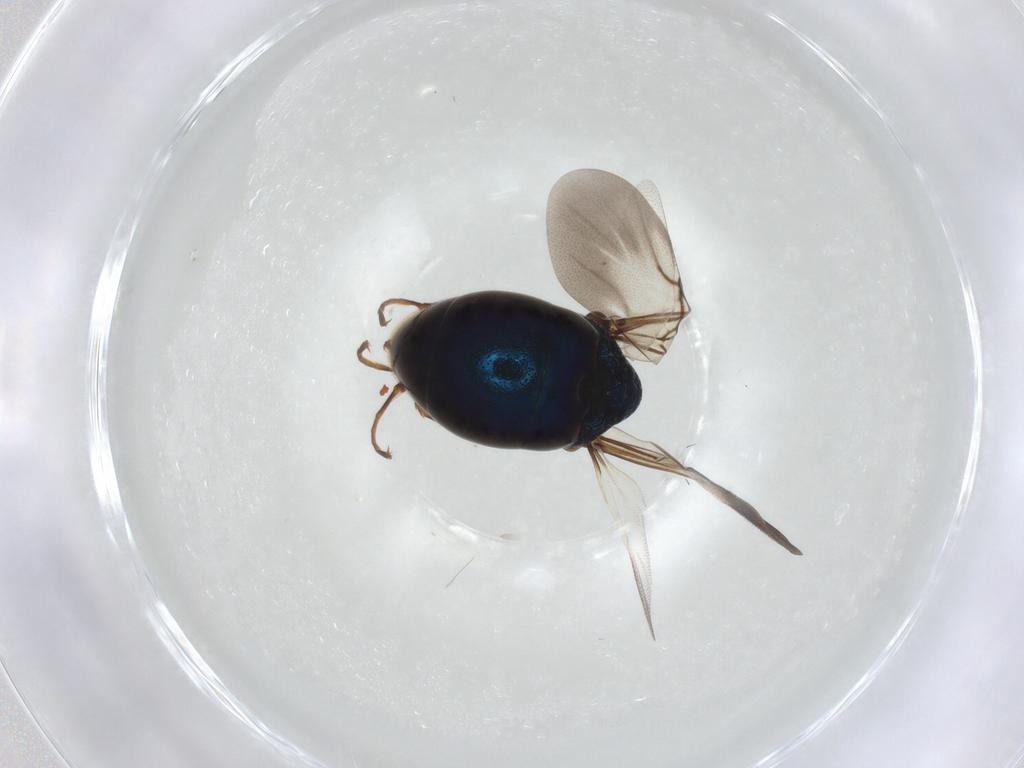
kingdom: Animalia
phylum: Arthropoda
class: Insecta
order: Hymenoptera
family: Chrysididae
